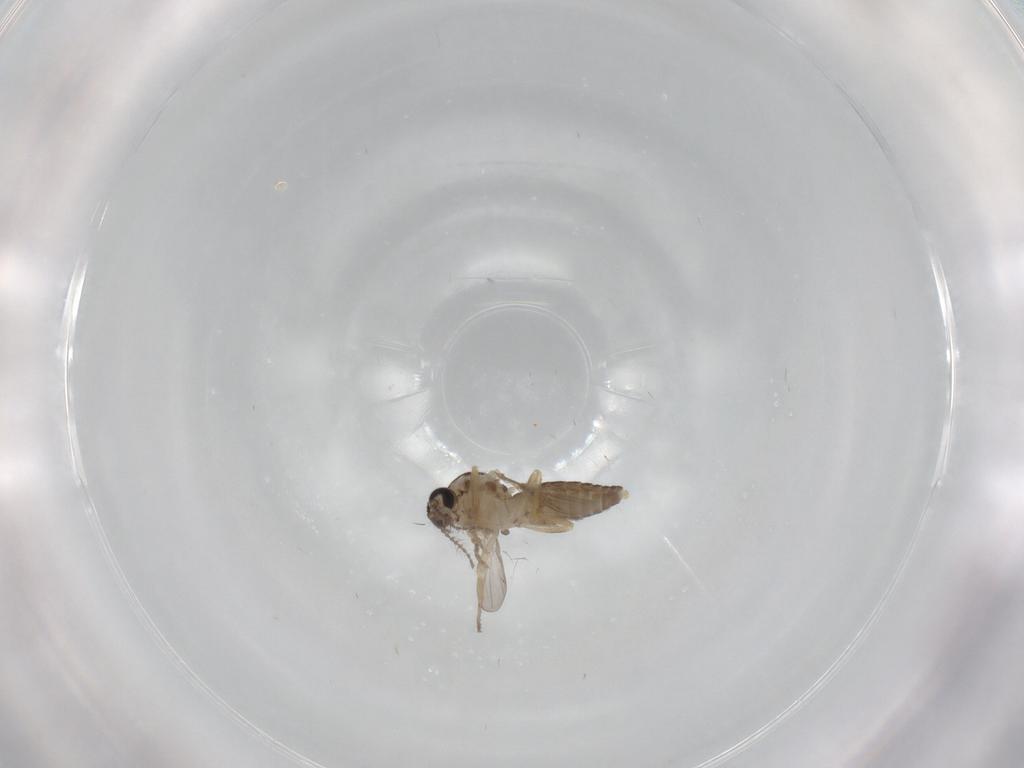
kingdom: Animalia
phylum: Arthropoda
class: Insecta
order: Diptera
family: Ceratopogonidae
